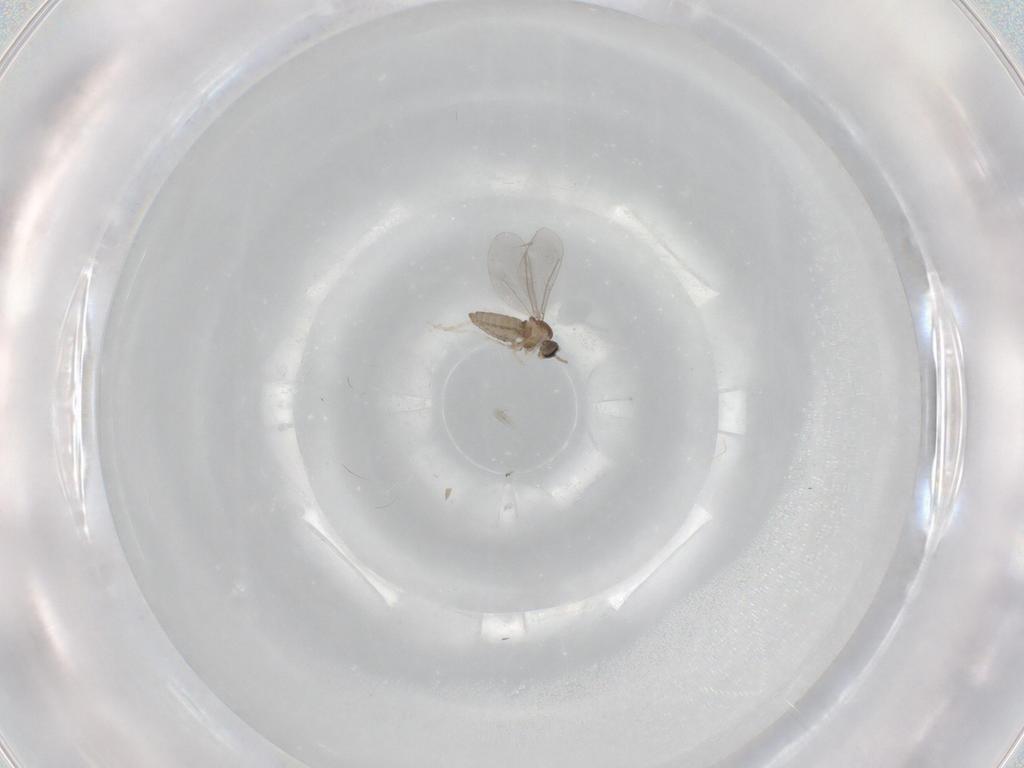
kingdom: Animalia
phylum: Arthropoda
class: Insecta
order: Diptera
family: Cecidomyiidae
